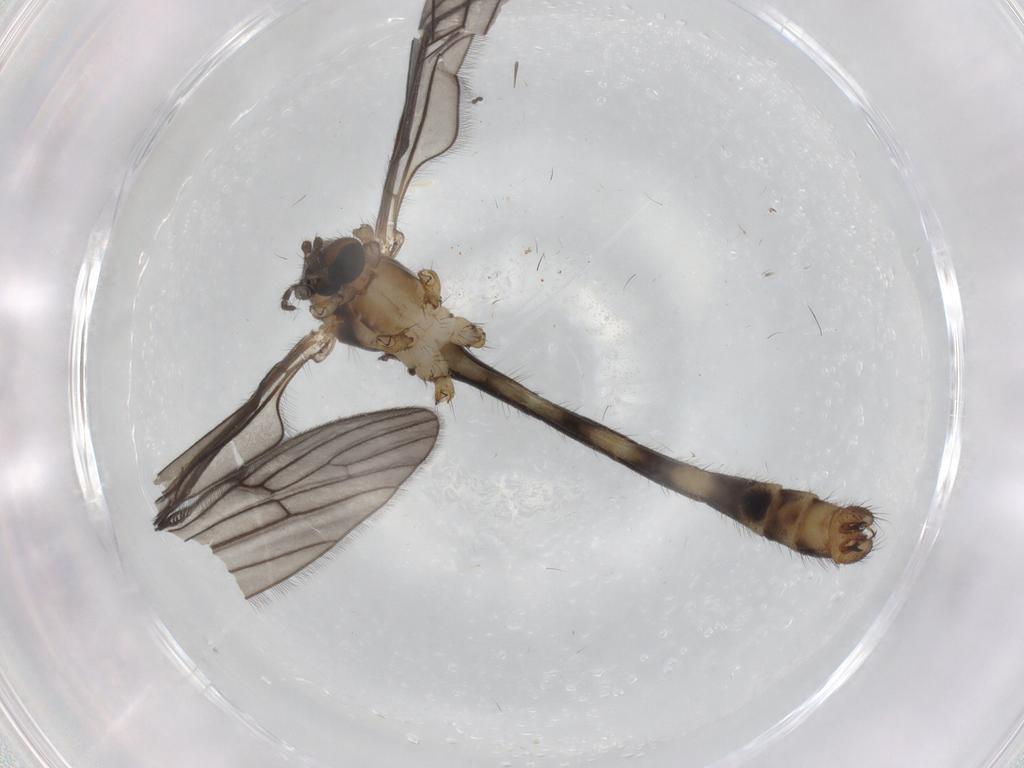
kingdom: Animalia
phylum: Arthropoda
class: Insecta
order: Diptera
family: Limoniidae
